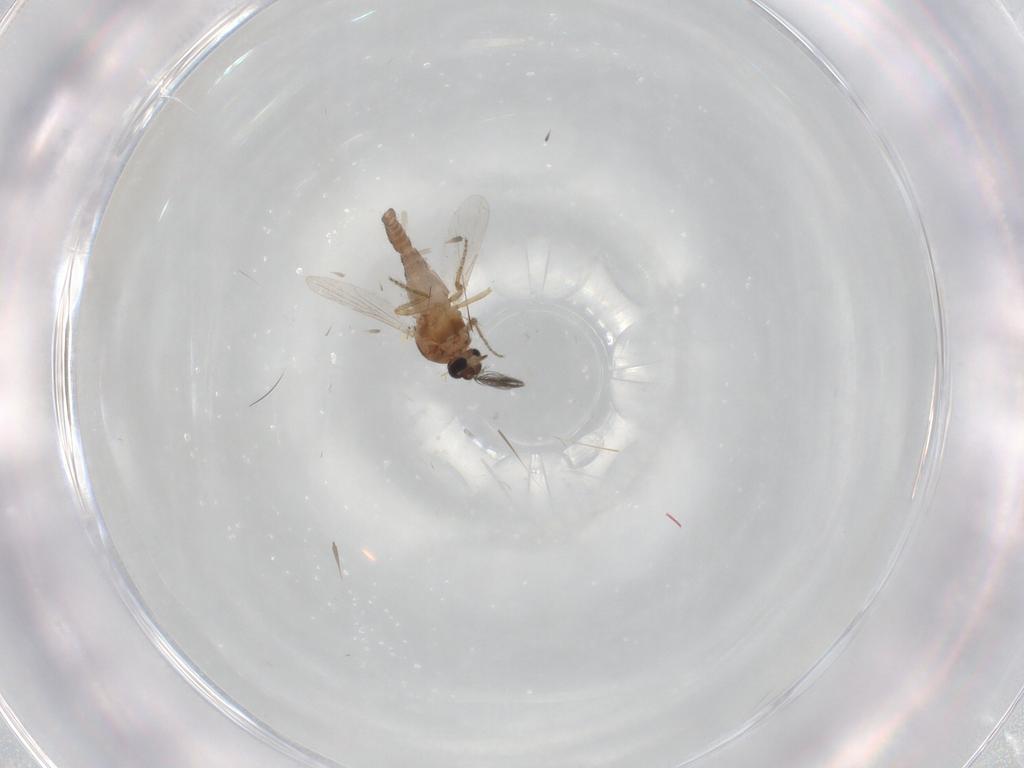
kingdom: Animalia
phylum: Arthropoda
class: Insecta
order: Diptera
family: Ceratopogonidae
